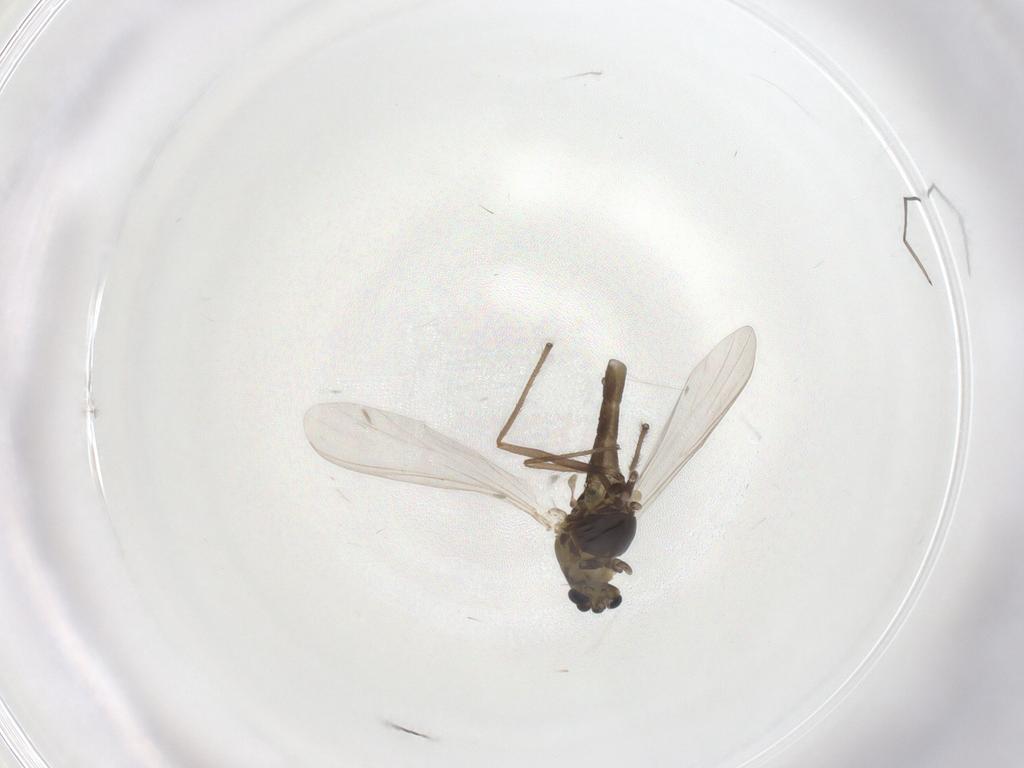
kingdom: Animalia
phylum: Arthropoda
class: Insecta
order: Diptera
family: Chironomidae
